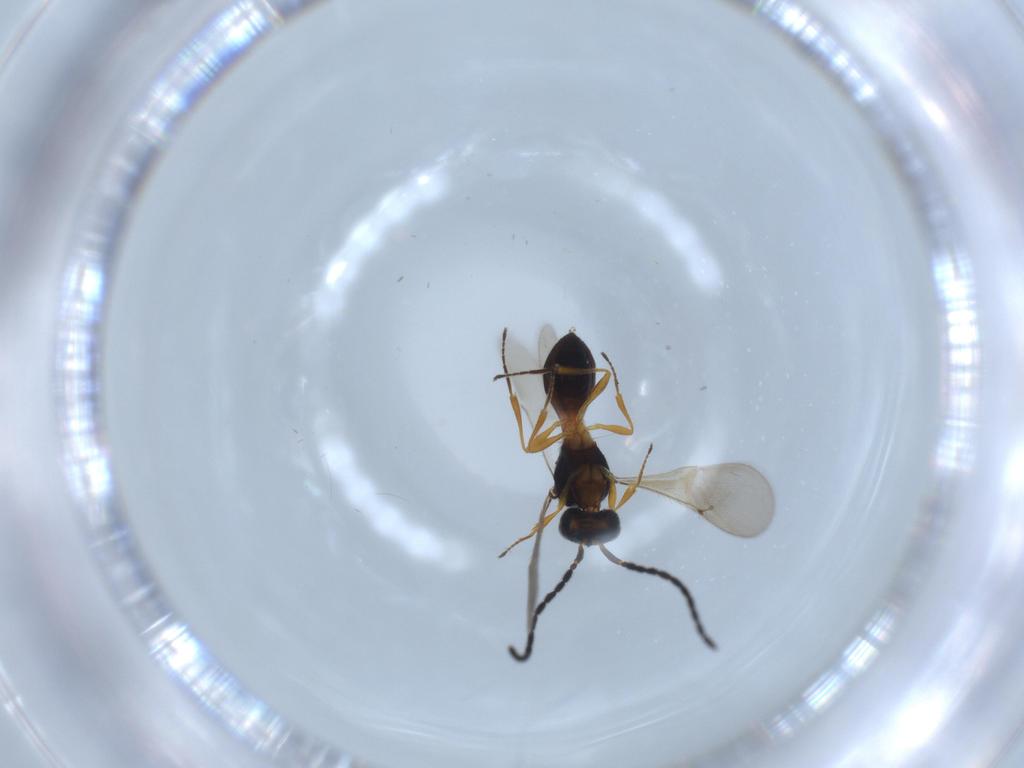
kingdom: Animalia
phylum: Arthropoda
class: Insecta
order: Hymenoptera
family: Scelionidae
